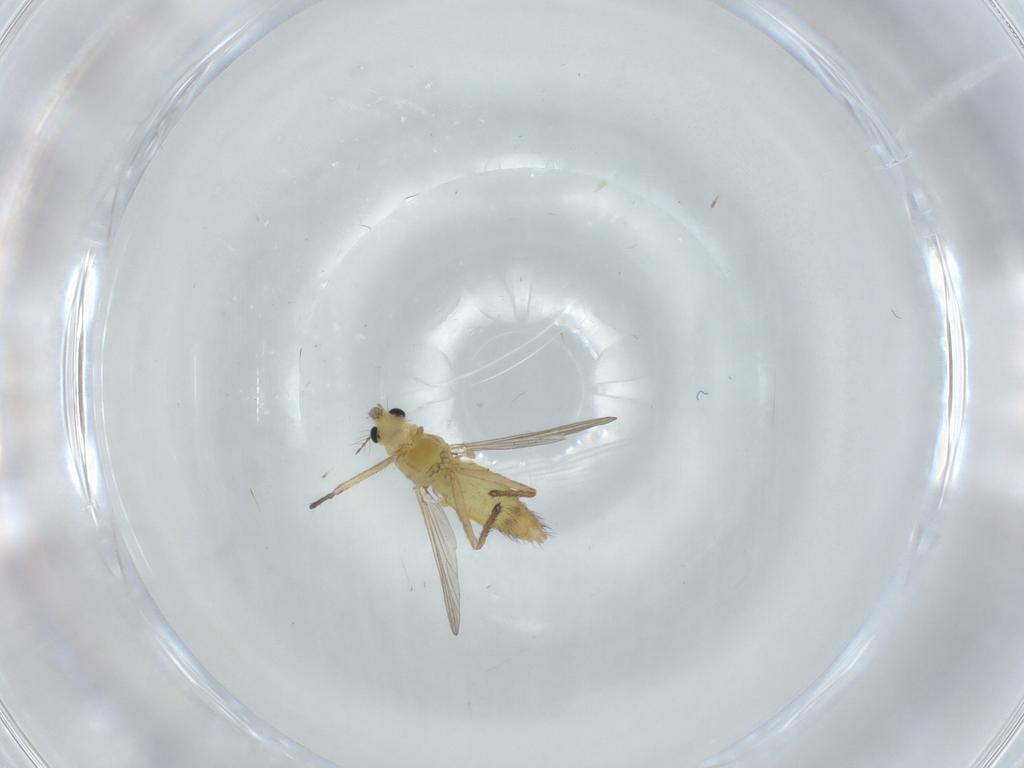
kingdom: Animalia
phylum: Arthropoda
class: Insecta
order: Diptera
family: Chironomidae
